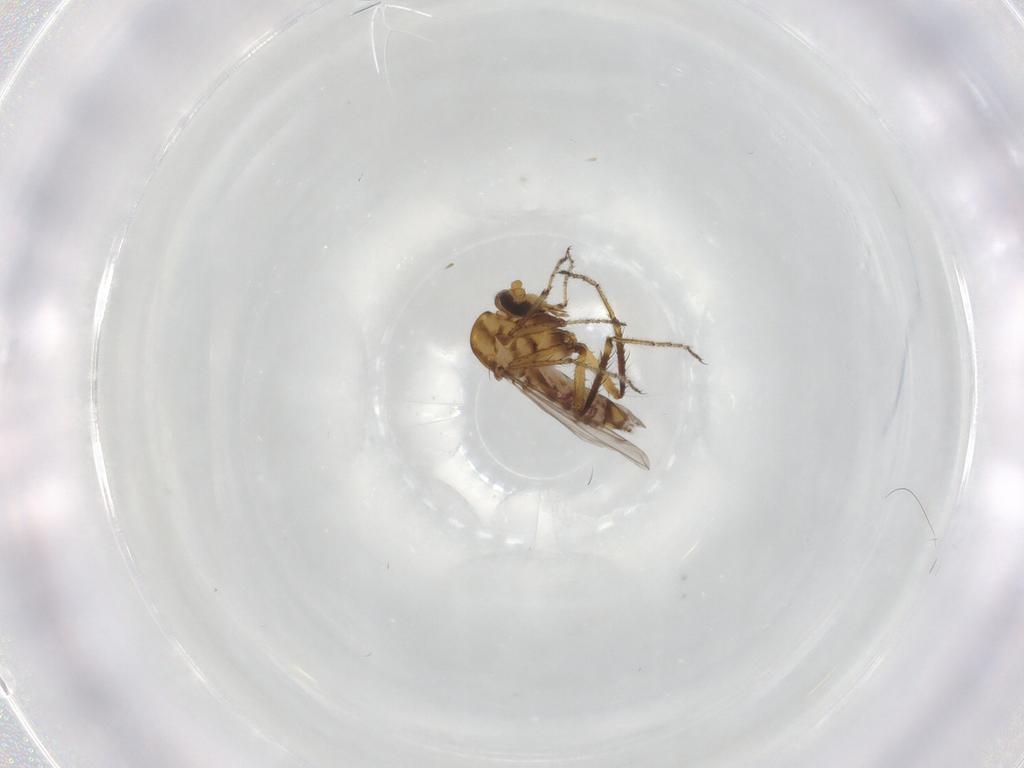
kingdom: Animalia
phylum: Arthropoda
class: Insecta
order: Diptera
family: Ceratopogonidae
